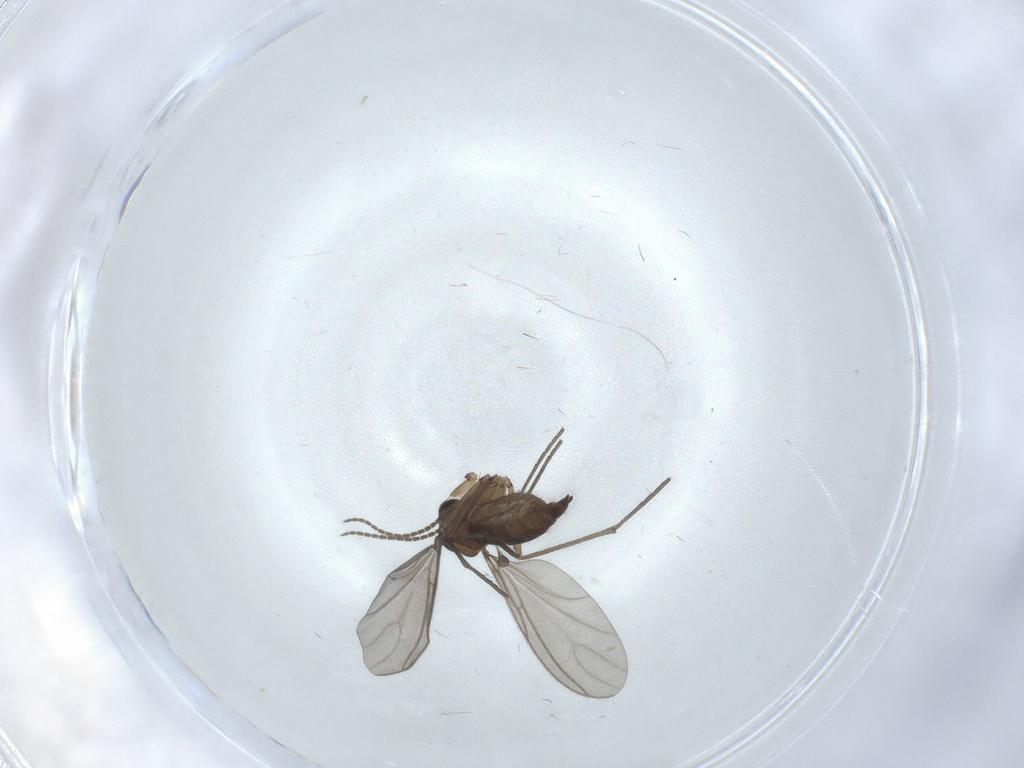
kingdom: Animalia
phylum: Arthropoda
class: Insecta
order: Diptera
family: Sciaridae
